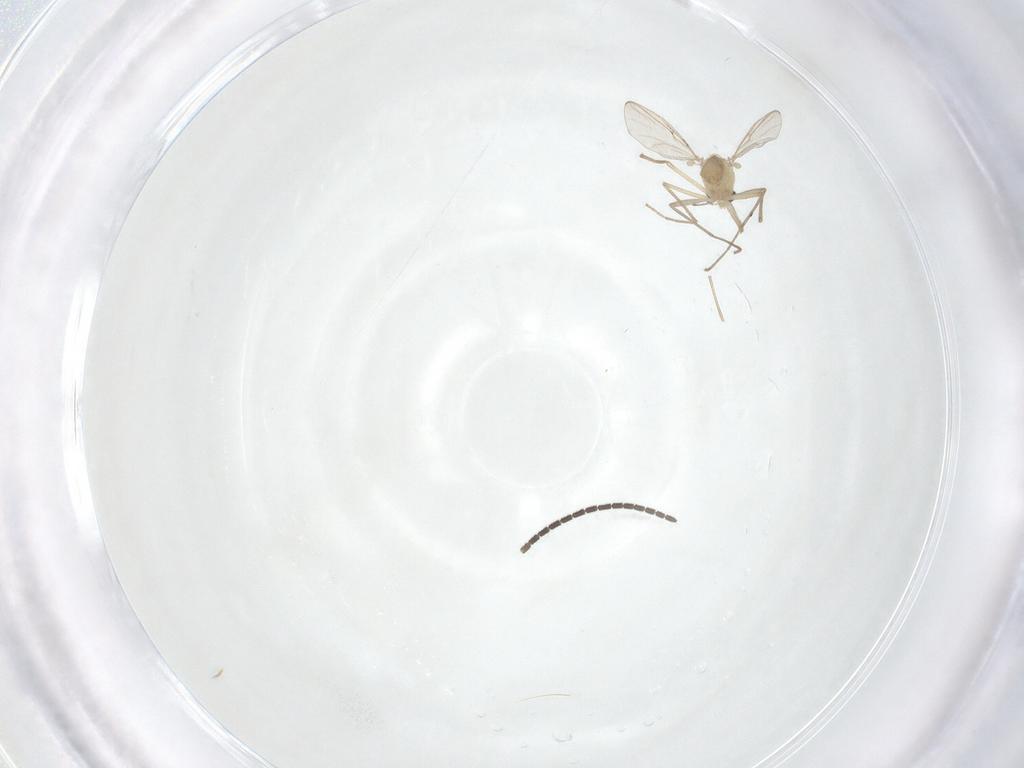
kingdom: Animalia
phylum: Arthropoda
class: Insecta
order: Diptera
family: Chironomidae
